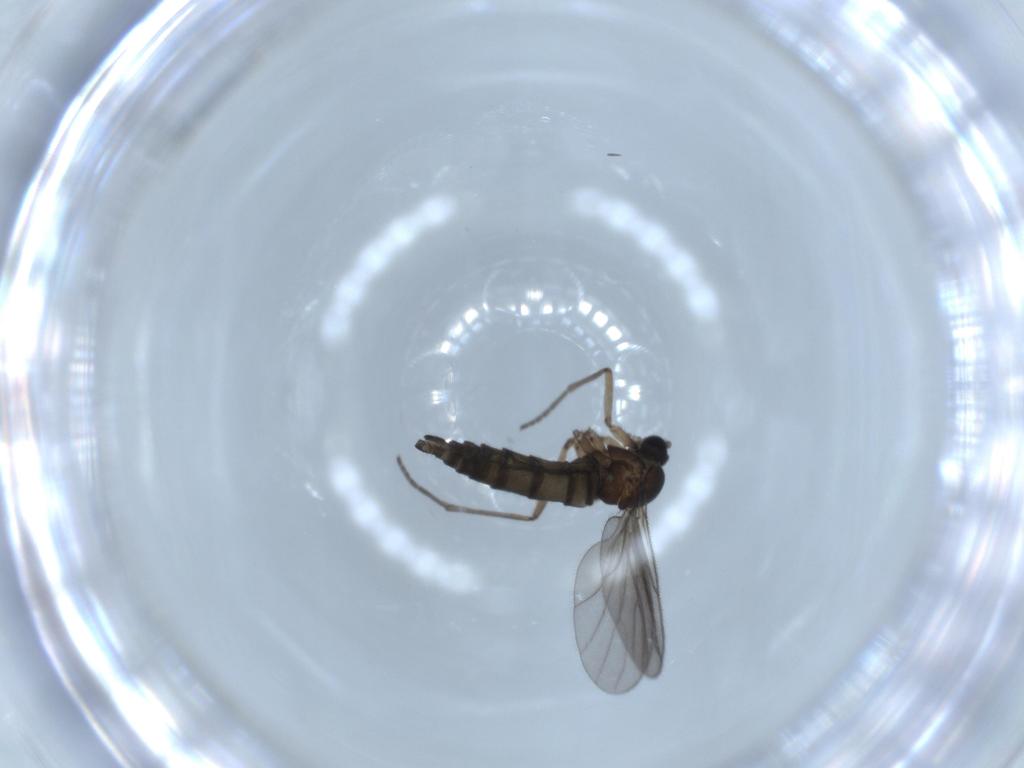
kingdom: Animalia
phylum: Arthropoda
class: Insecta
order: Diptera
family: Sciaridae
